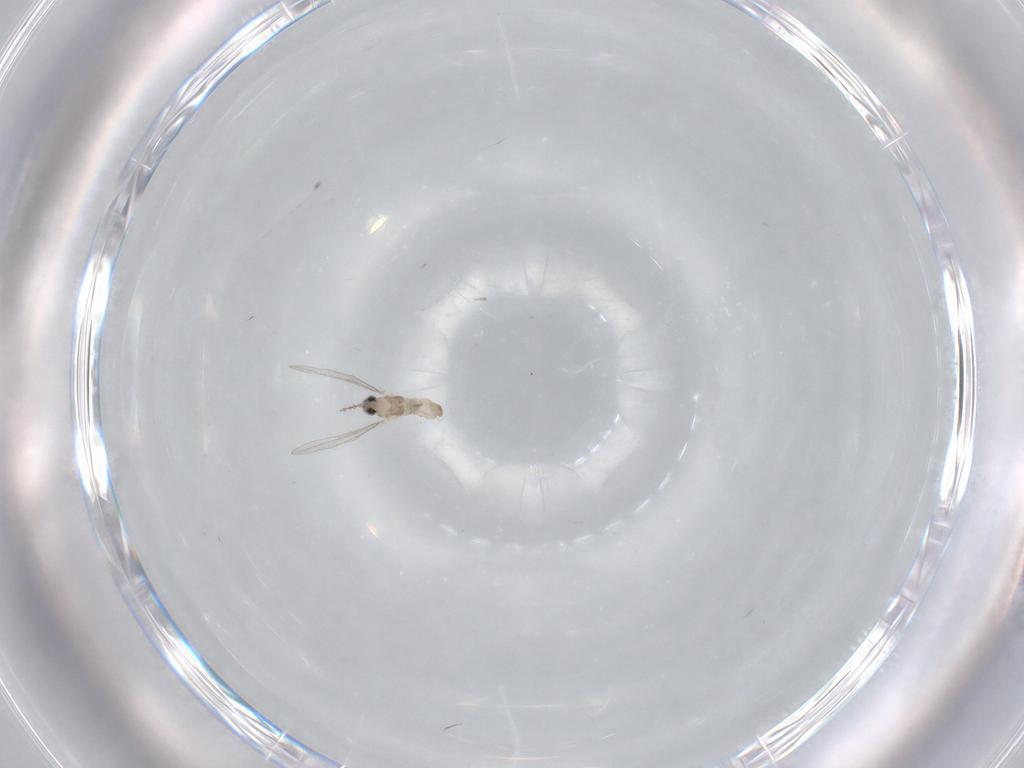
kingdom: Animalia
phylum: Arthropoda
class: Insecta
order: Diptera
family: Cecidomyiidae
